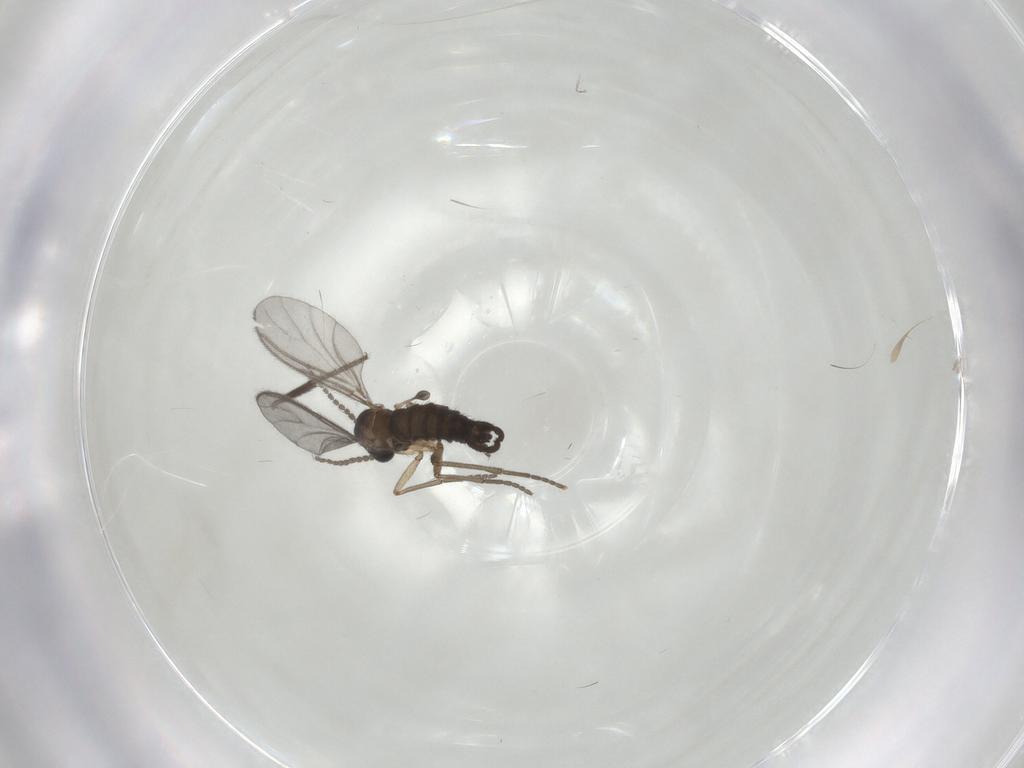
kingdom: Animalia
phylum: Arthropoda
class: Insecta
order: Diptera
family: Sciaridae
